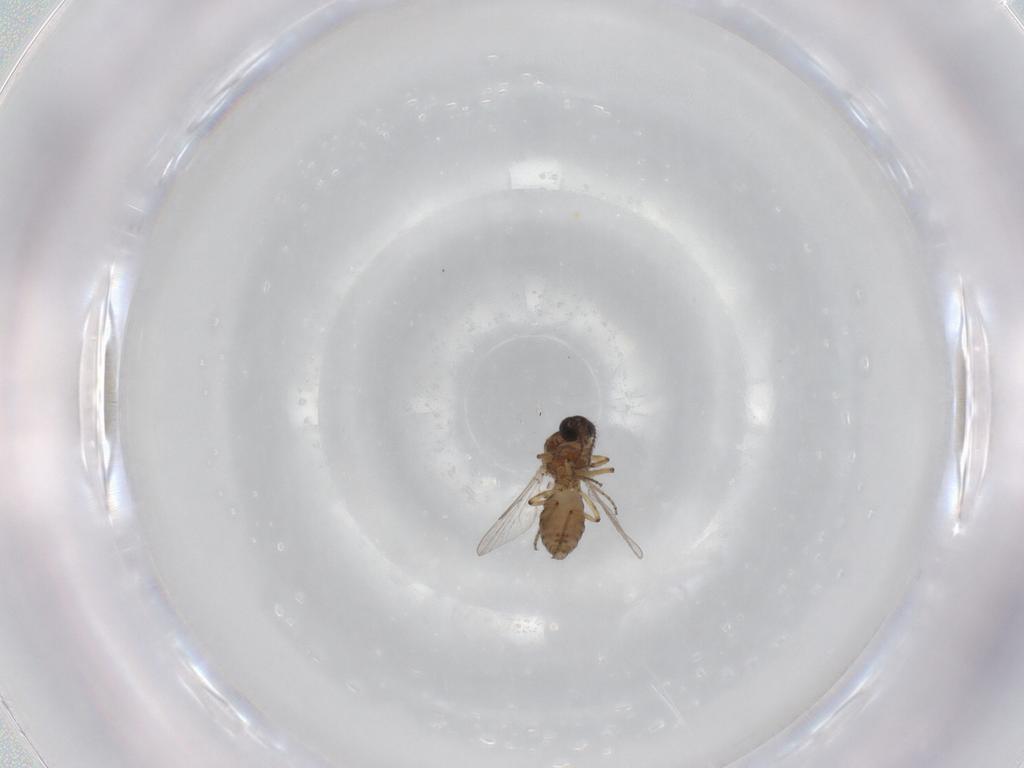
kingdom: Animalia
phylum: Arthropoda
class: Insecta
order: Diptera
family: Ceratopogonidae
